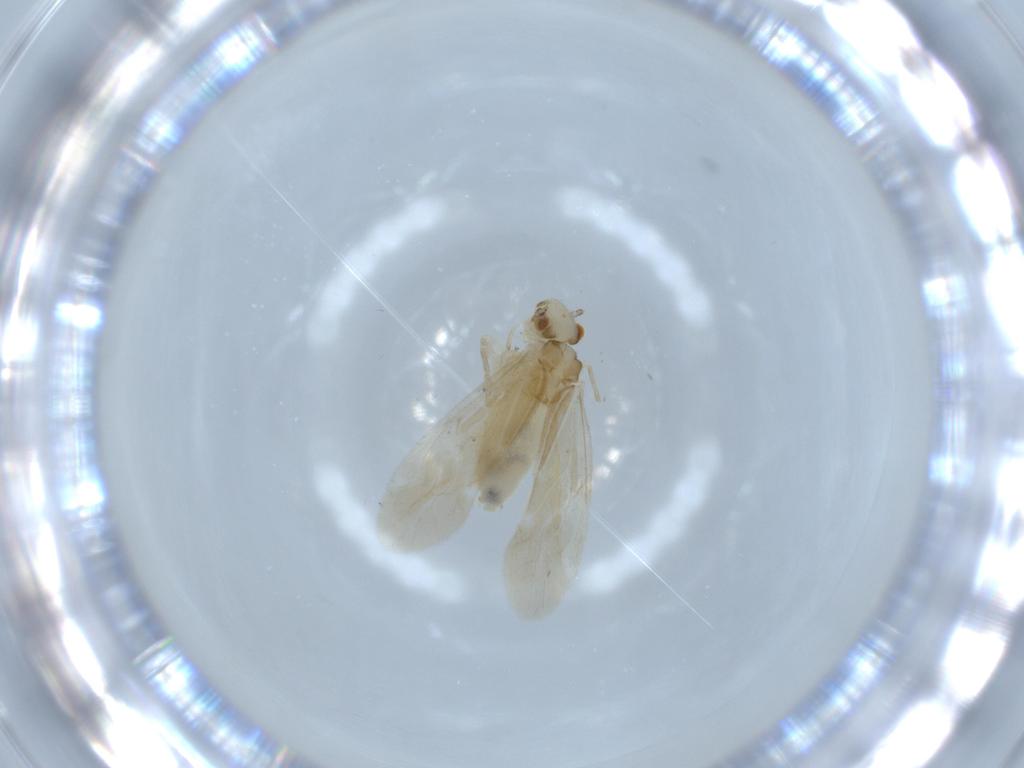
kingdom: Animalia
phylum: Arthropoda
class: Insecta
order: Psocodea
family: Caeciliusidae
